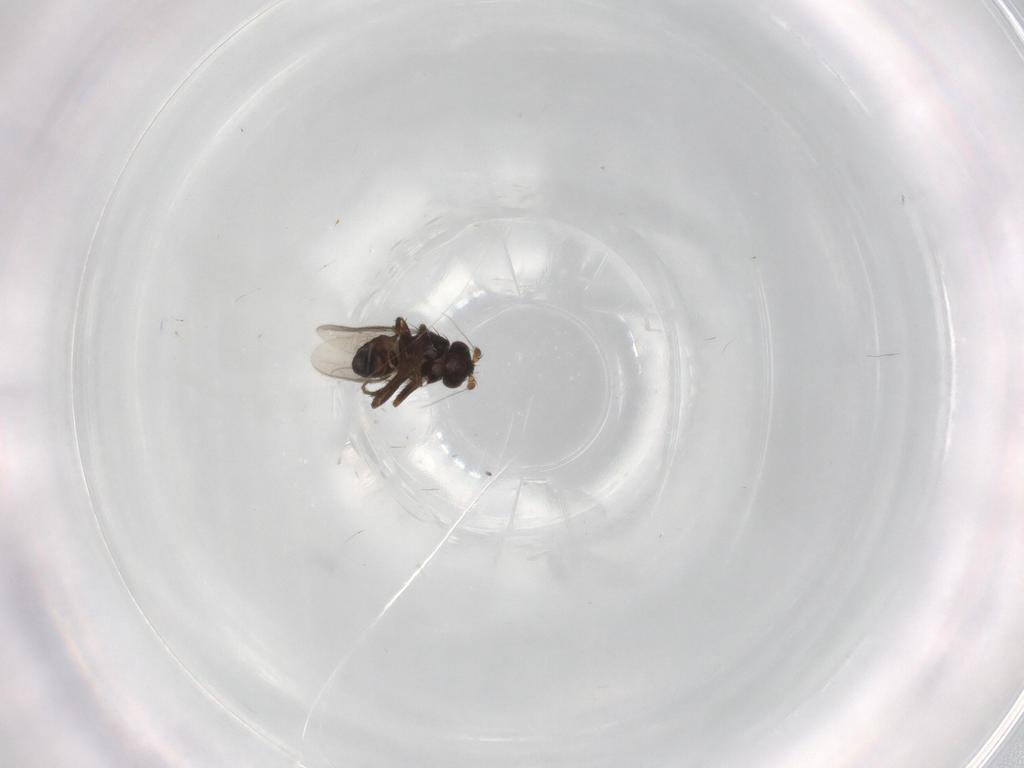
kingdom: Animalia
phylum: Arthropoda
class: Insecta
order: Diptera
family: Sphaeroceridae
